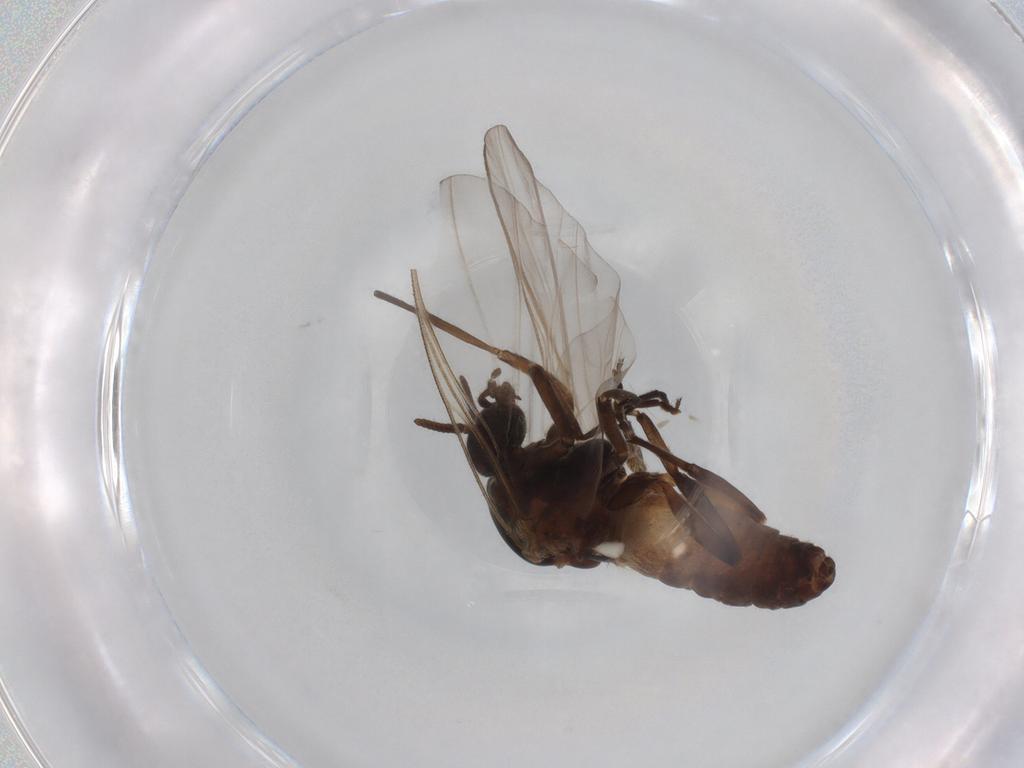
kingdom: Animalia
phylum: Arthropoda
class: Insecta
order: Diptera
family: Simuliidae
